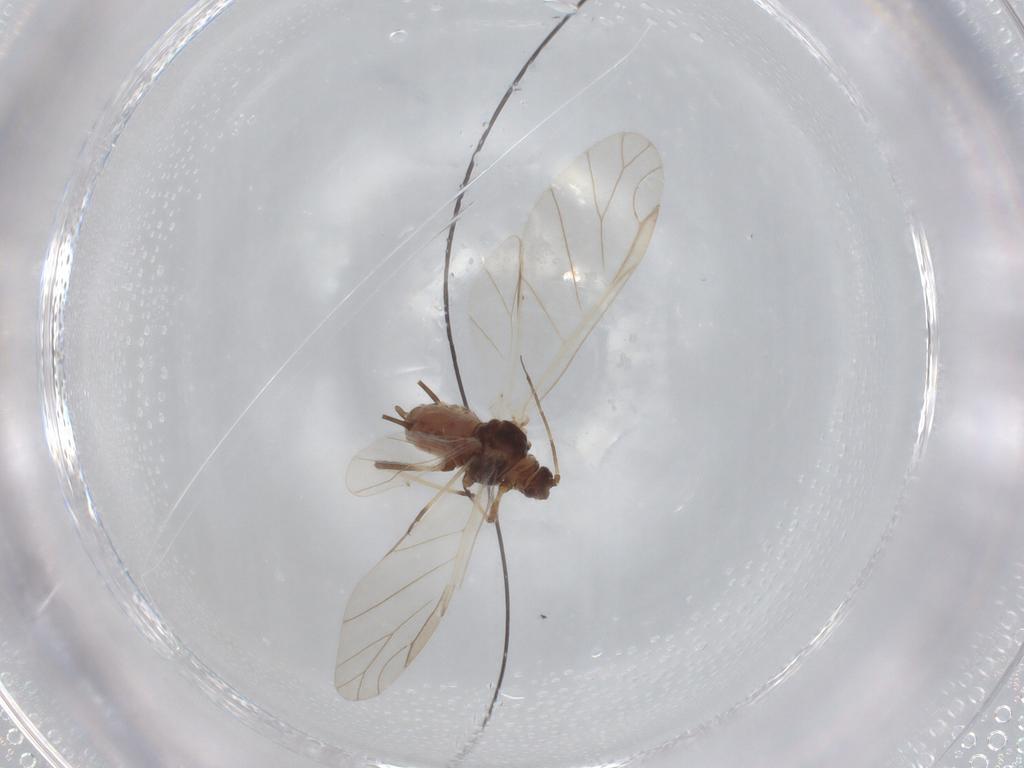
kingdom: Animalia
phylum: Arthropoda
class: Insecta
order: Hemiptera
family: Aphididae
